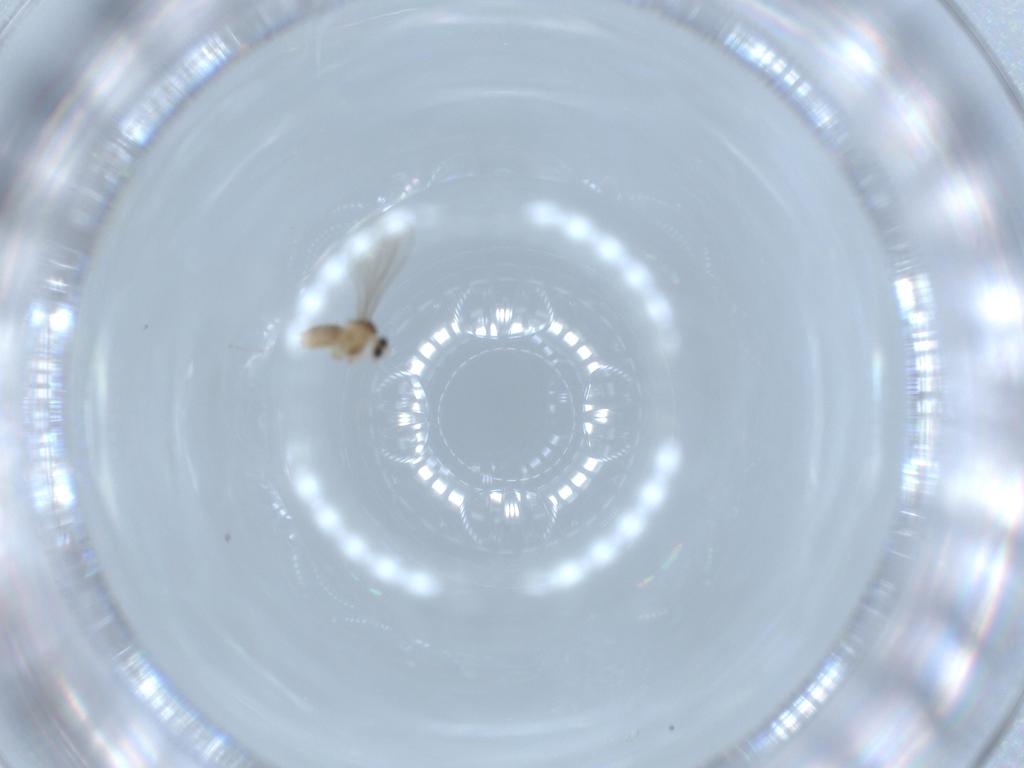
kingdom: Animalia
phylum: Arthropoda
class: Insecta
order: Diptera
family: Cecidomyiidae
